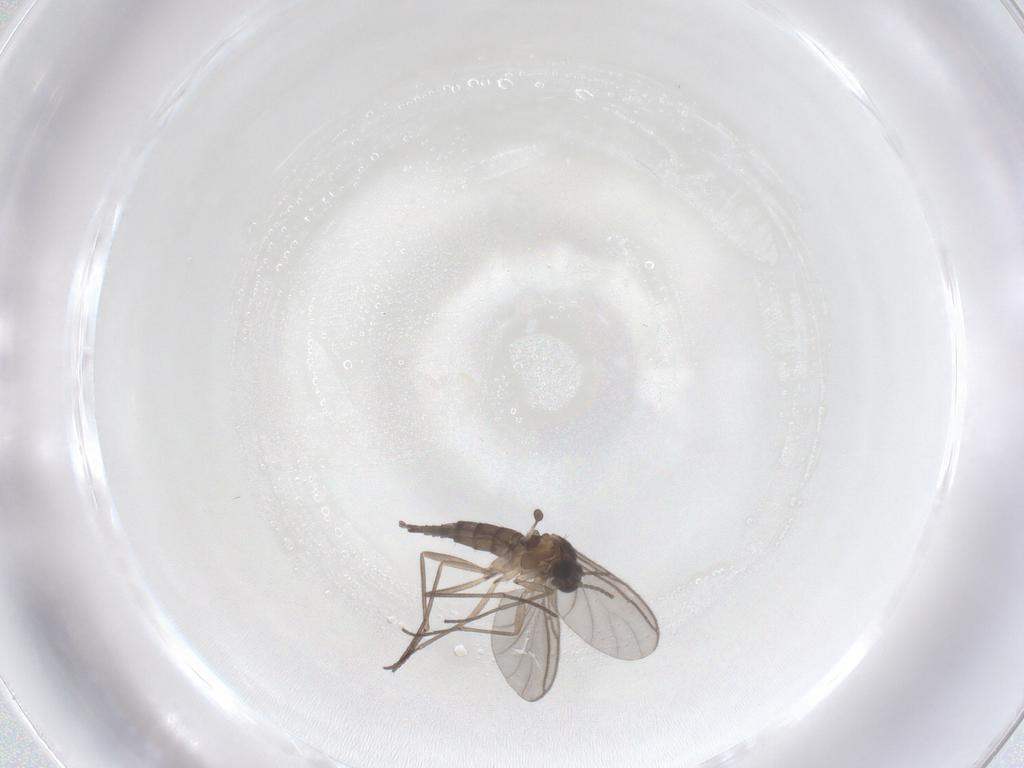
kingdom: Animalia
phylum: Arthropoda
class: Insecta
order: Diptera
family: Sciaridae
